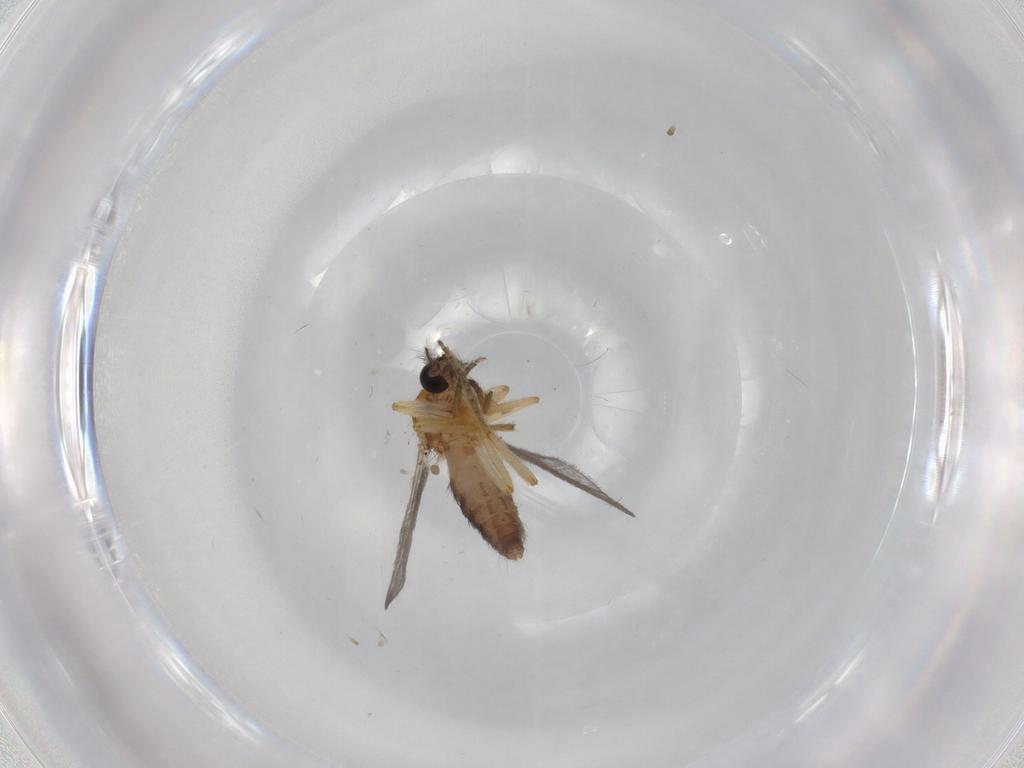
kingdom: Animalia
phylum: Arthropoda
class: Insecta
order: Diptera
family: Ceratopogonidae
